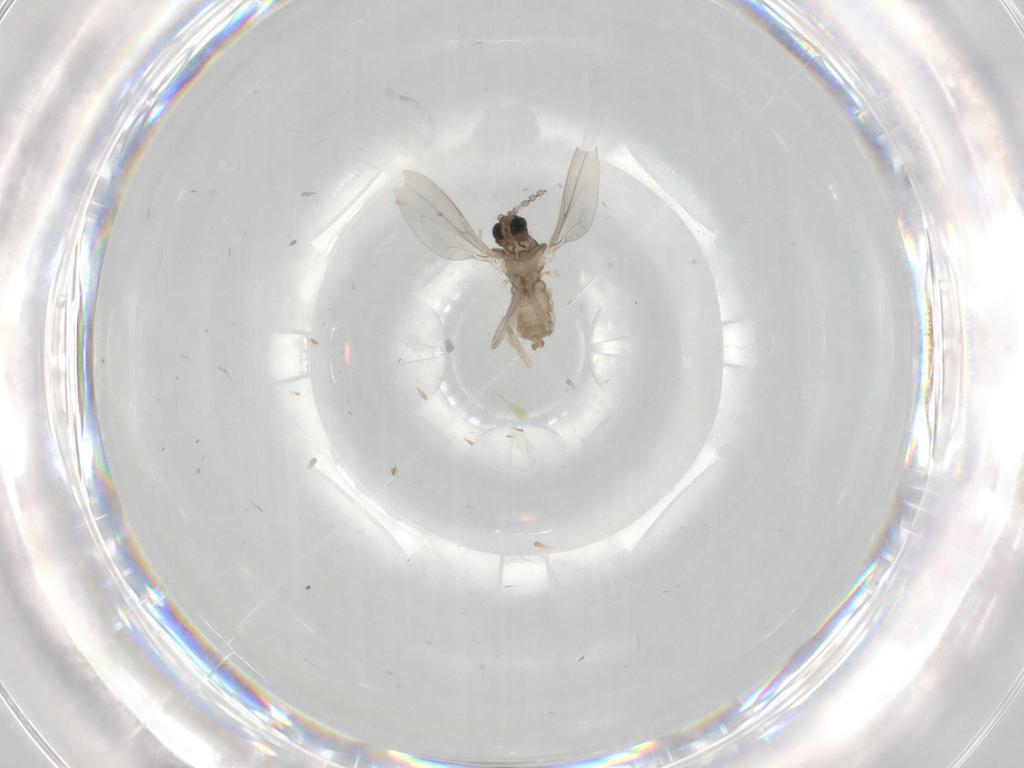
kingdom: Animalia
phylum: Arthropoda
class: Insecta
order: Diptera
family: Cecidomyiidae
